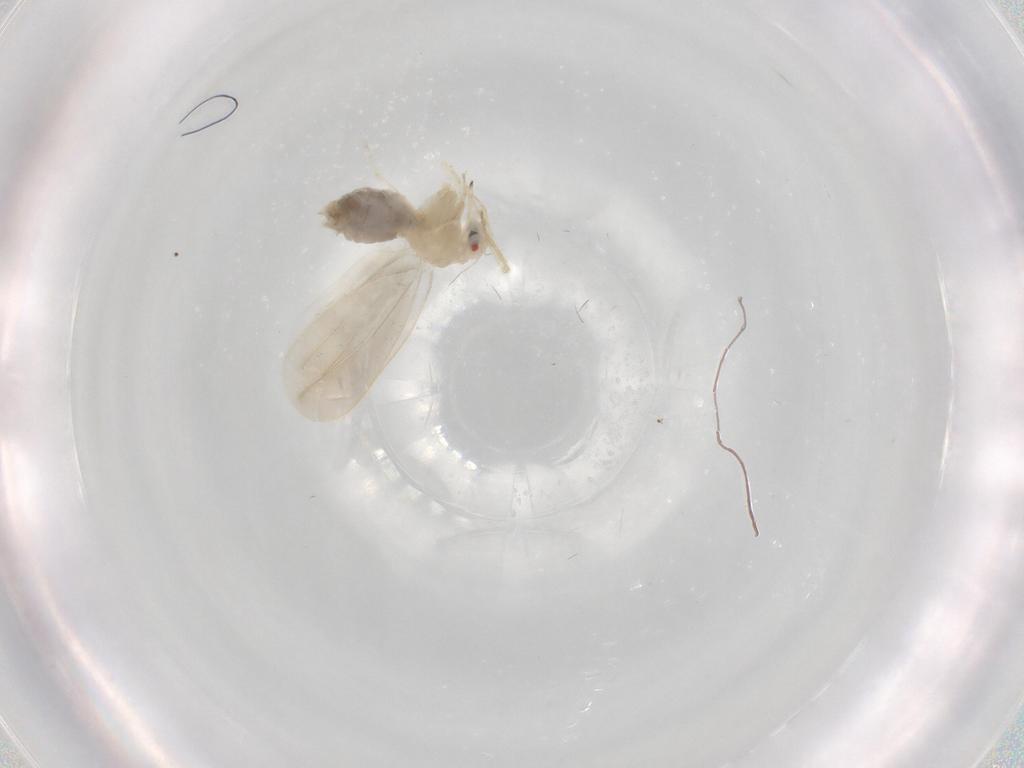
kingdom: Animalia
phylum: Arthropoda
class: Insecta
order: Hemiptera
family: Aleyrodidae
